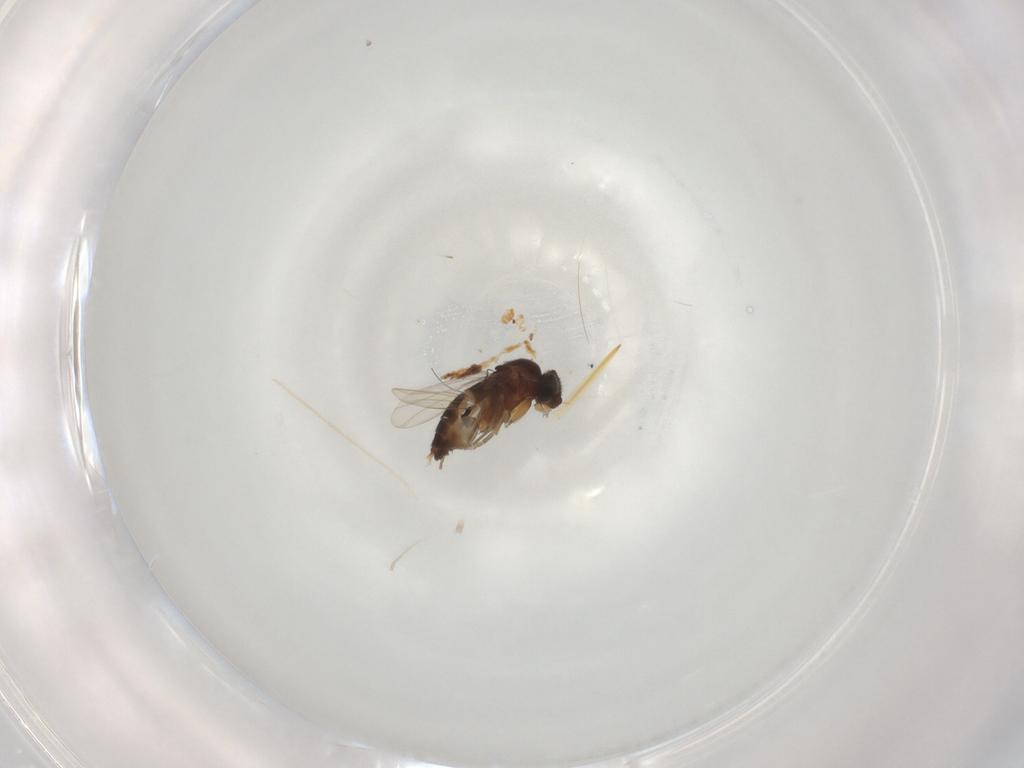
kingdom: Animalia
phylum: Arthropoda
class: Insecta
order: Diptera
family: Phoridae
